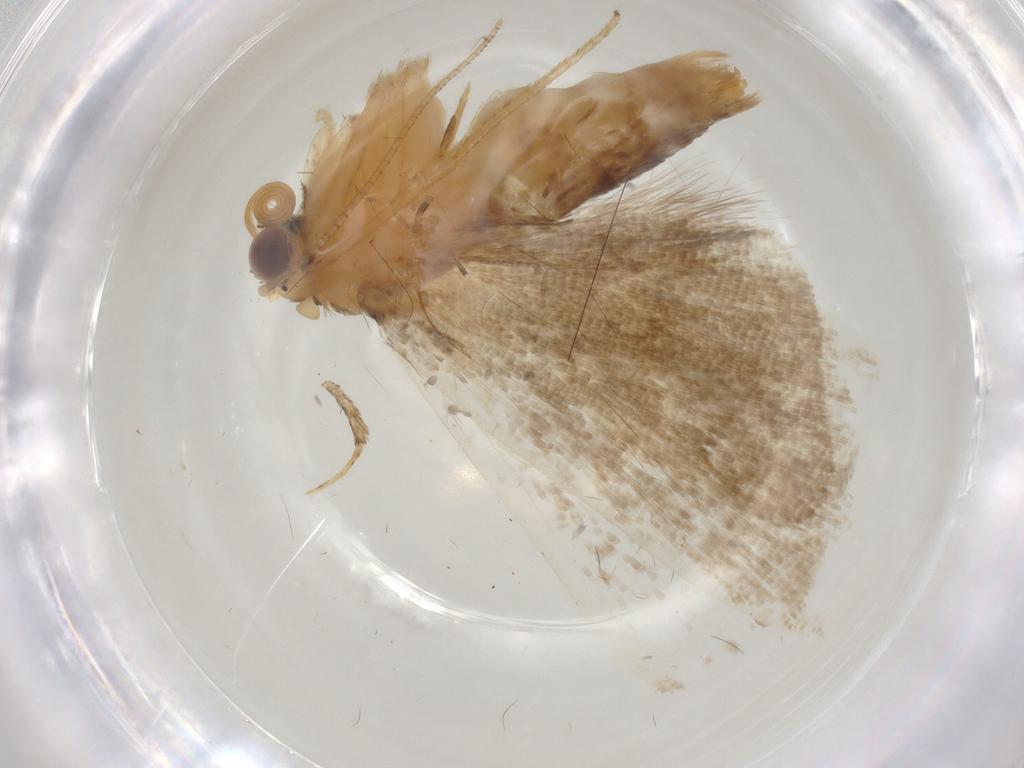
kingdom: Animalia
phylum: Arthropoda
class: Insecta
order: Lepidoptera
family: Erebidae
